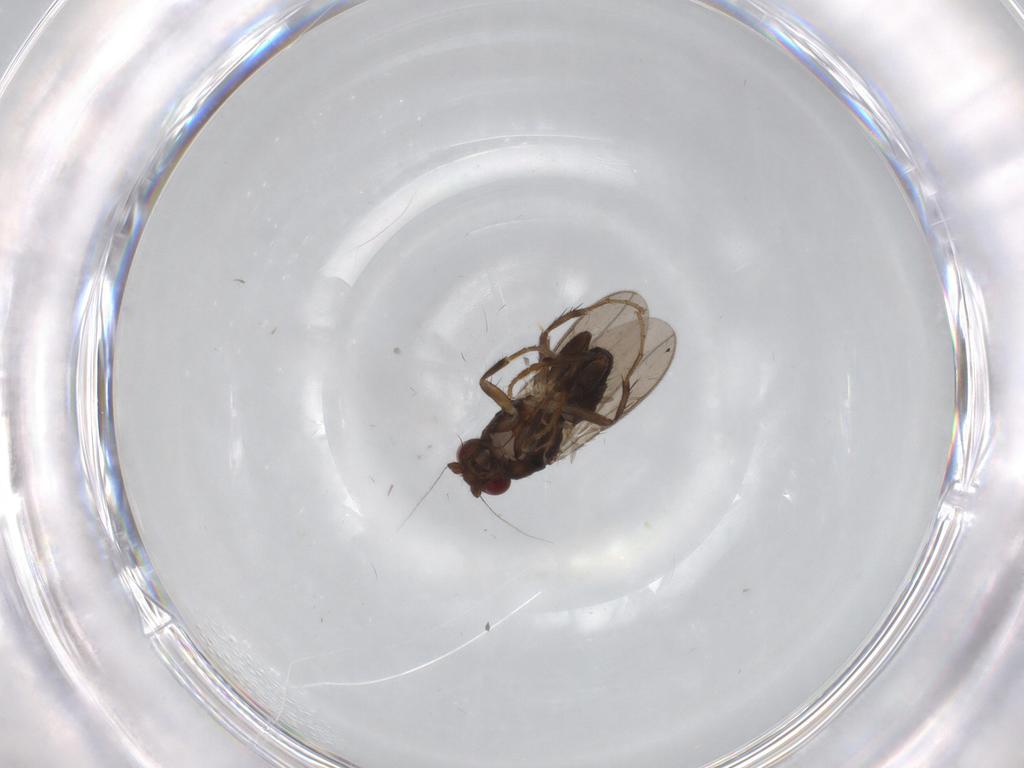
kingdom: Animalia
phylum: Arthropoda
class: Insecta
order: Diptera
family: Sphaeroceridae
